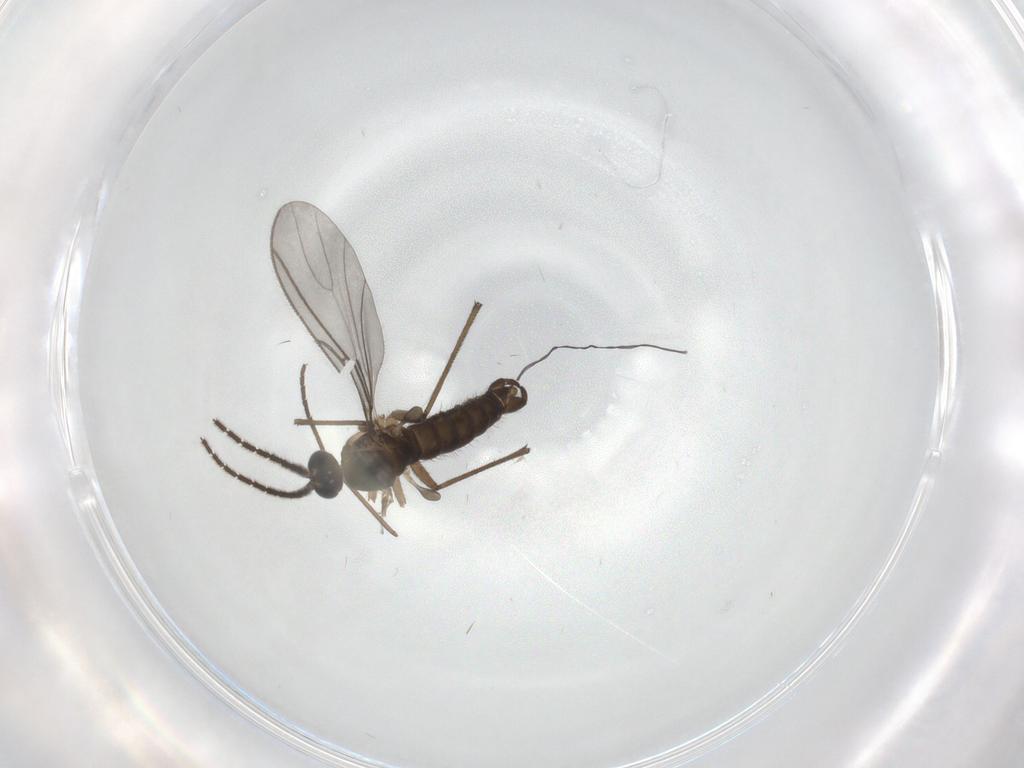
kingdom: Animalia
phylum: Arthropoda
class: Insecta
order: Diptera
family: Sciaridae
